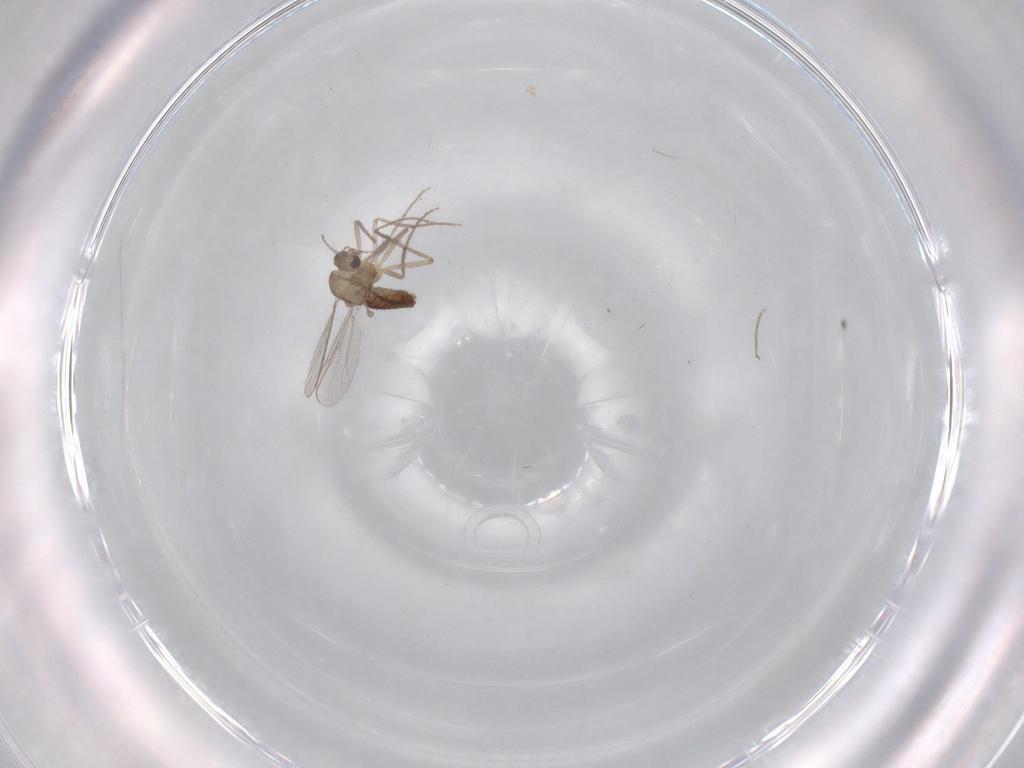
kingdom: Animalia
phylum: Arthropoda
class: Insecta
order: Diptera
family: Chironomidae
